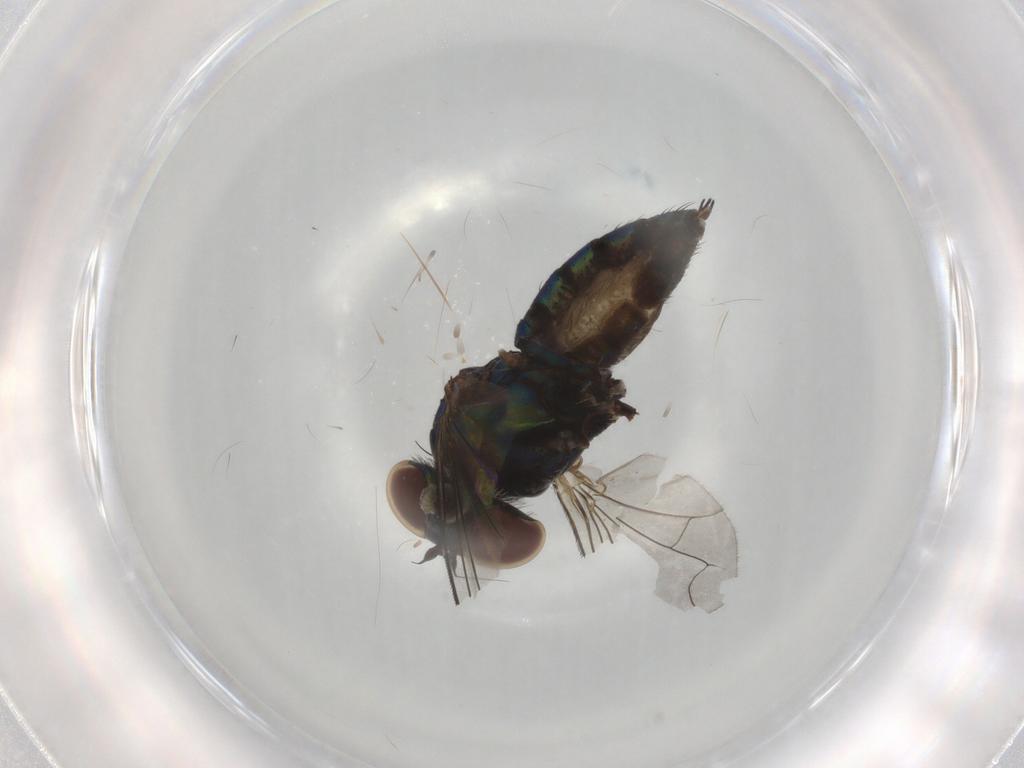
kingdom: Animalia
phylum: Arthropoda
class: Insecta
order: Diptera
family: Dolichopodidae
